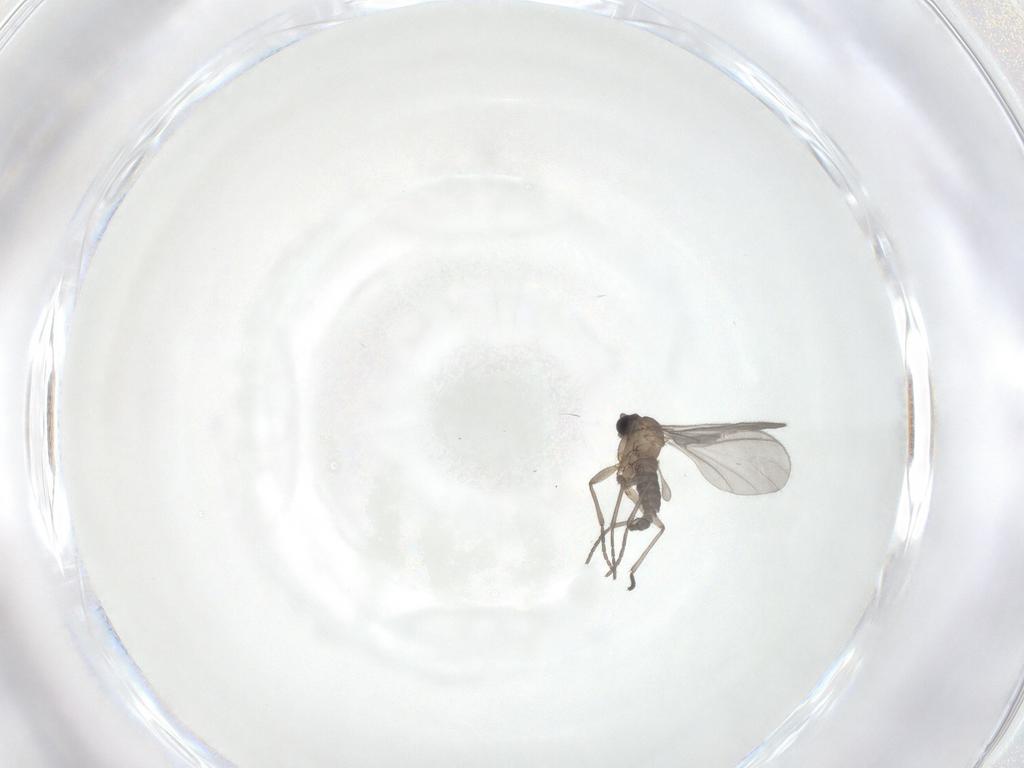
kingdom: Animalia
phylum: Arthropoda
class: Insecta
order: Diptera
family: Sciaridae
